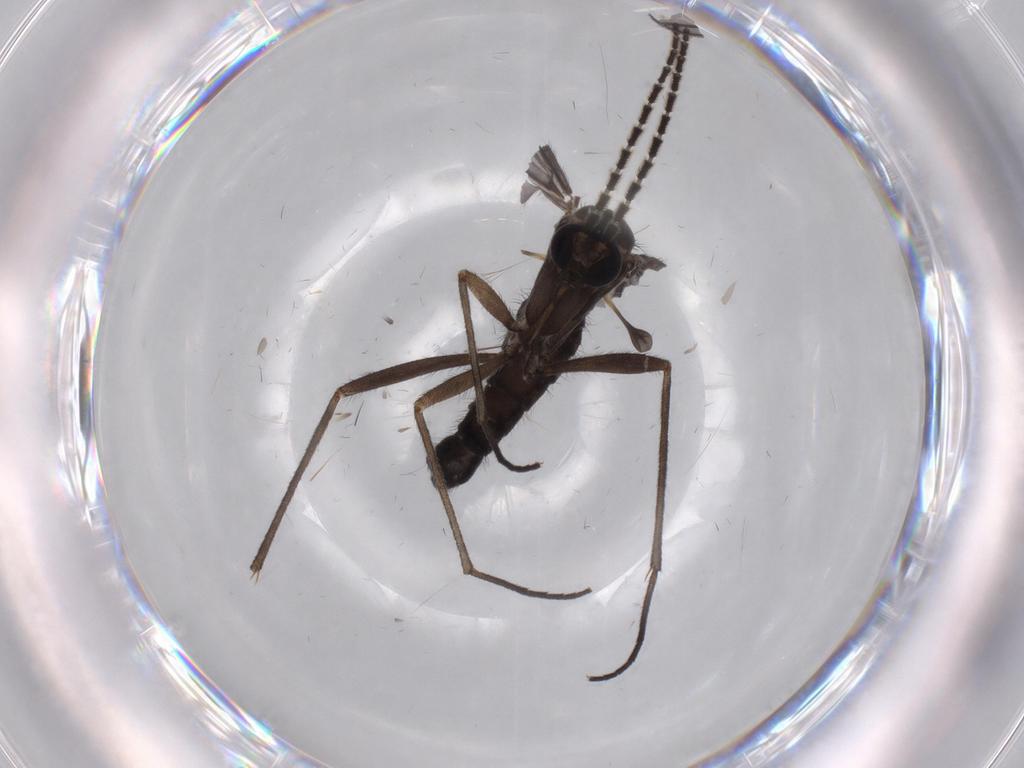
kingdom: Animalia
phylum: Arthropoda
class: Insecta
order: Diptera
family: Sciaridae
